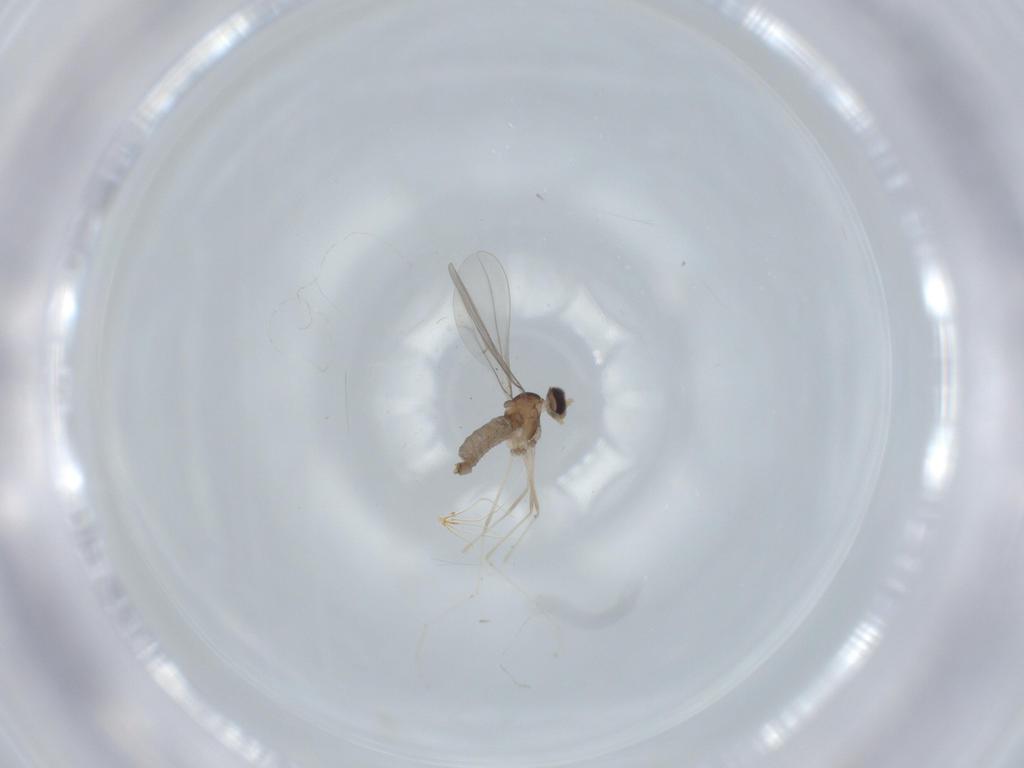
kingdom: Animalia
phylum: Arthropoda
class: Insecta
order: Diptera
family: Cecidomyiidae
